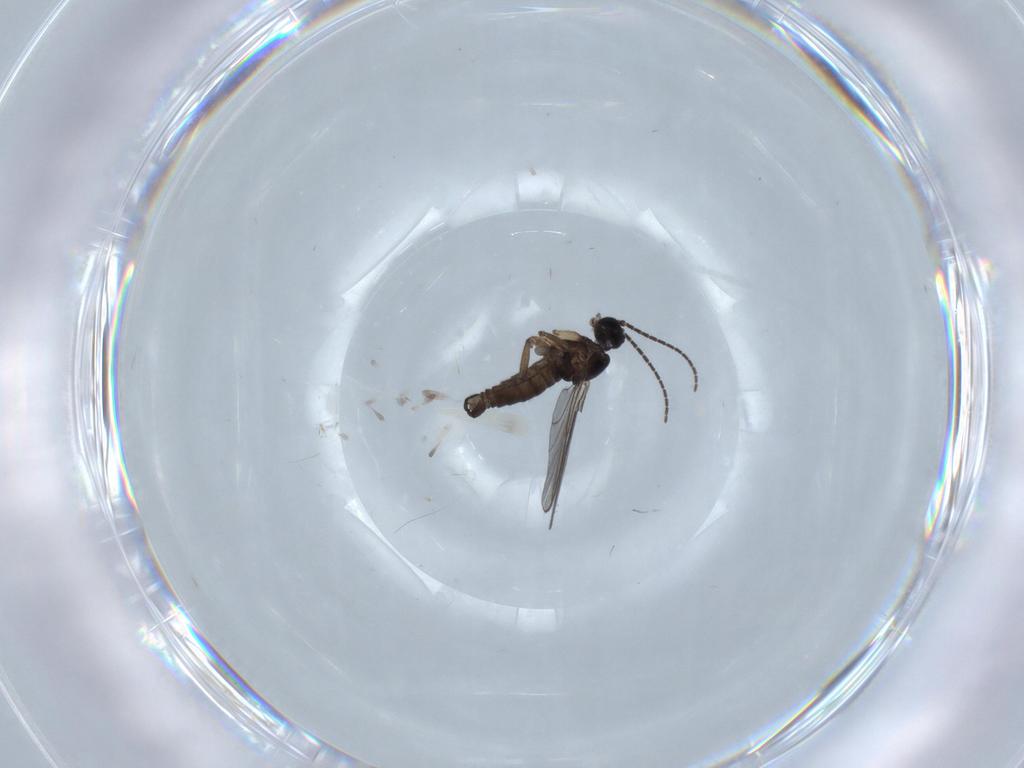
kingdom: Animalia
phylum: Arthropoda
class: Insecta
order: Diptera
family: Sciaridae
